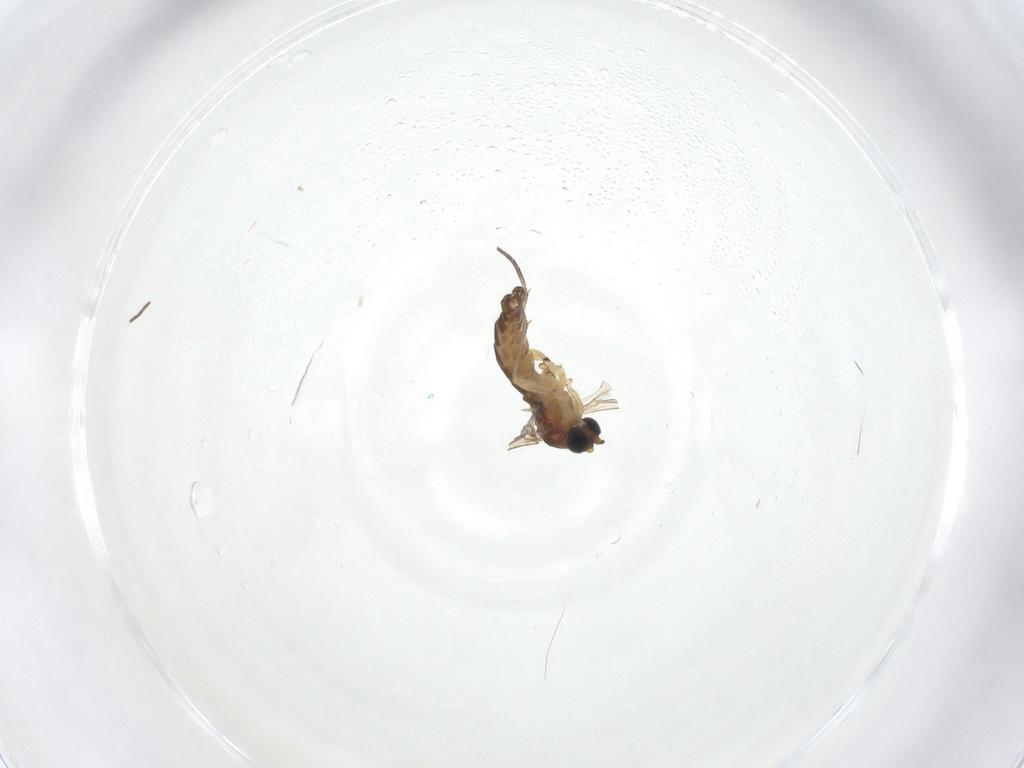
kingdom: Animalia
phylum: Arthropoda
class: Insecta
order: Diptera
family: Sciaridae
